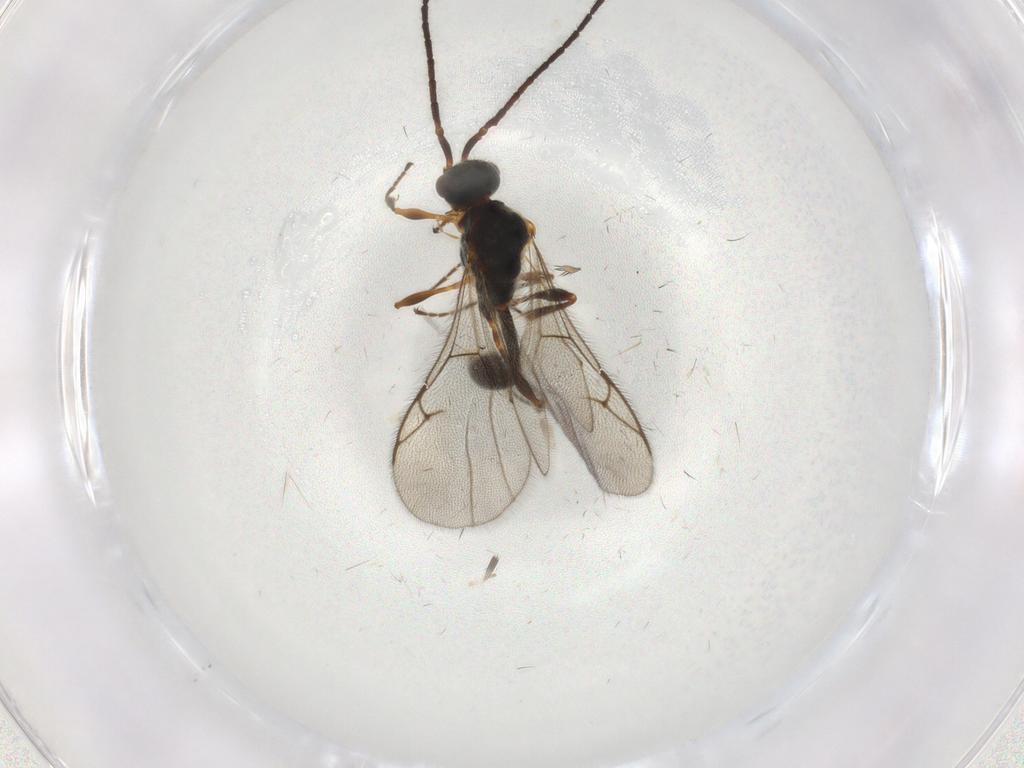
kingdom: Animalia
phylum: Arthropoda
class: Insecta
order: Hymenoptera
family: Diapriidae
